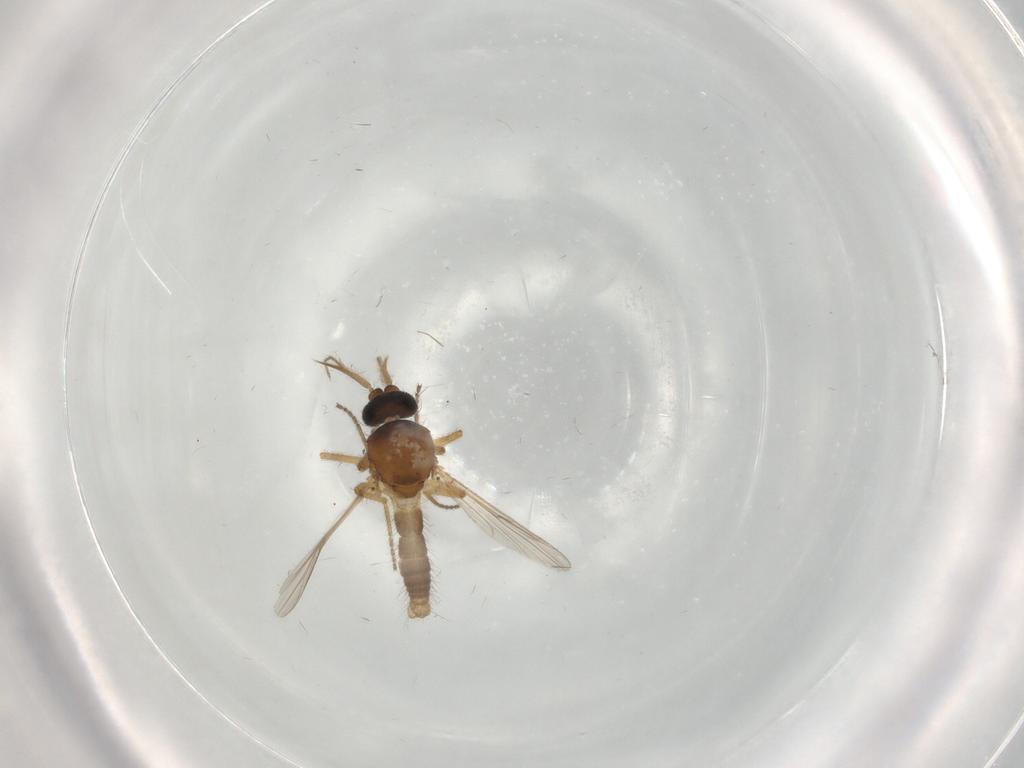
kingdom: Animalia
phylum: Arthropoda
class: Insecta
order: Diptera
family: Ceratopogonidae
